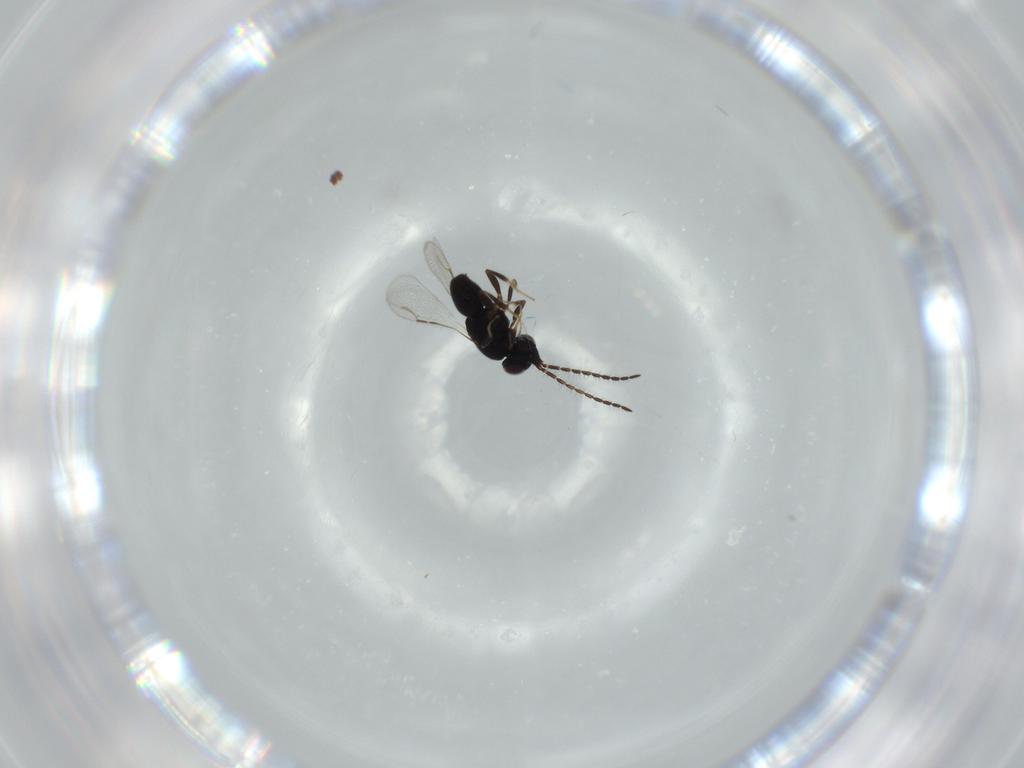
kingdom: Animalia
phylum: Arthropoda
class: Insecta
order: Hymenoptera
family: Ceraphronidae
